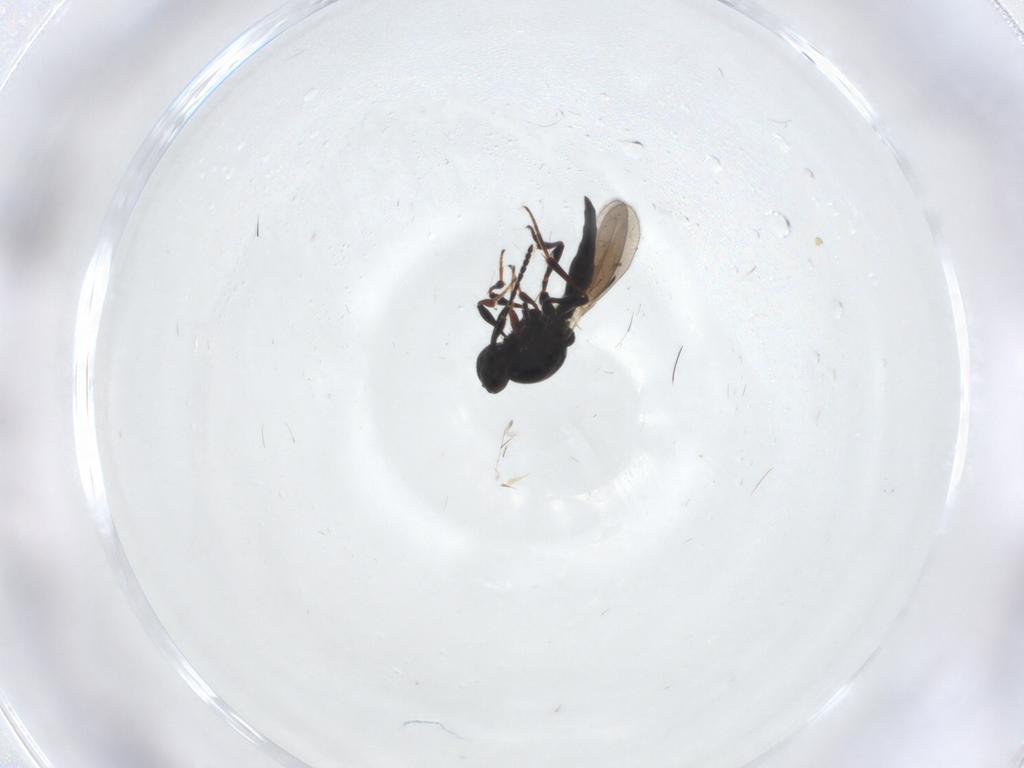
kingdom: Animalia
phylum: Arthropoda
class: Insecta
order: Hymenoptera
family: Platygastridae
